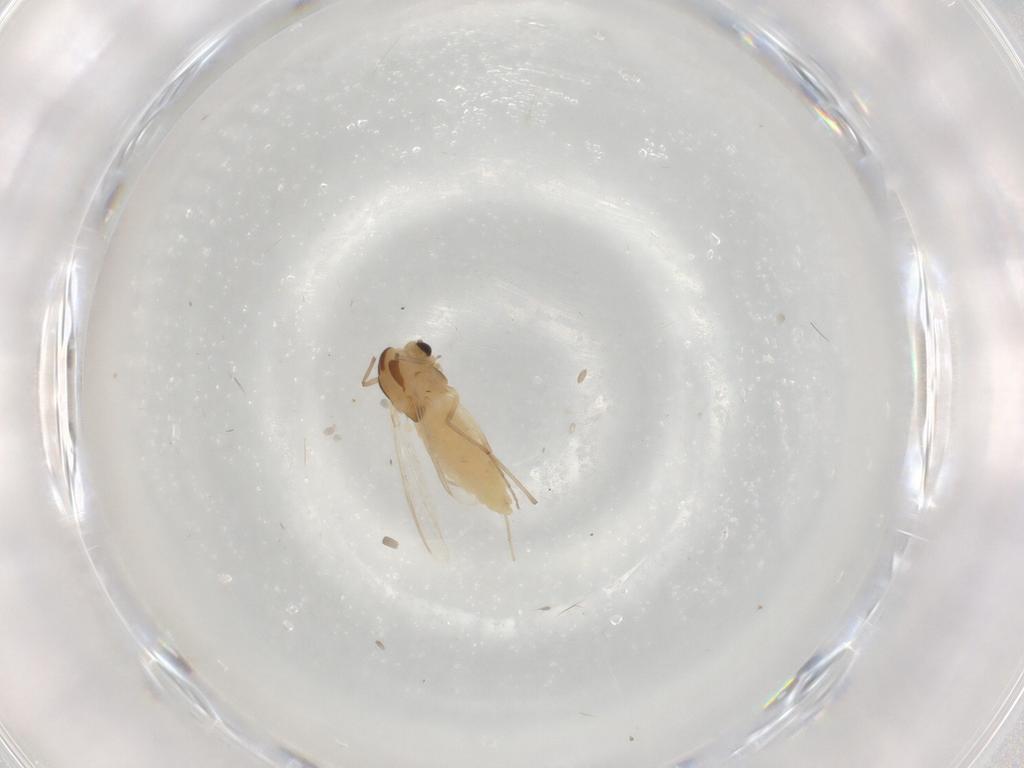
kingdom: Animalia
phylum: Arthropoda
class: Insecta
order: Diptera
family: Chironomidae
